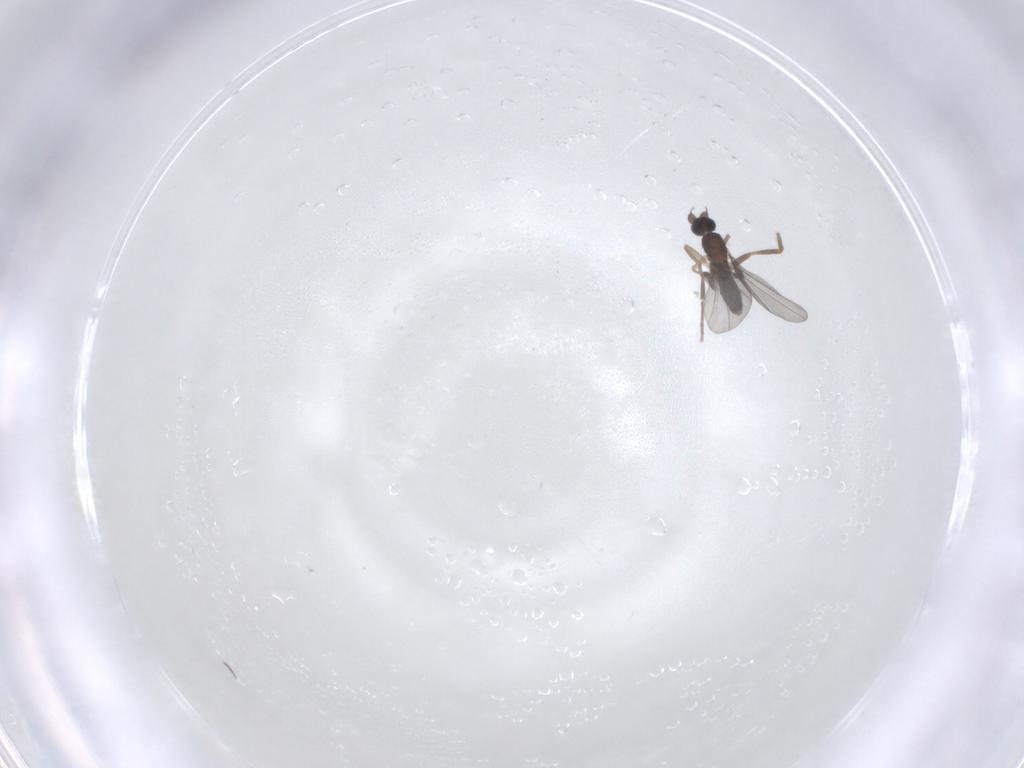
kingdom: Animalia
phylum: Arthropoda
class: Insecta
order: Diptera
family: Phoridae
